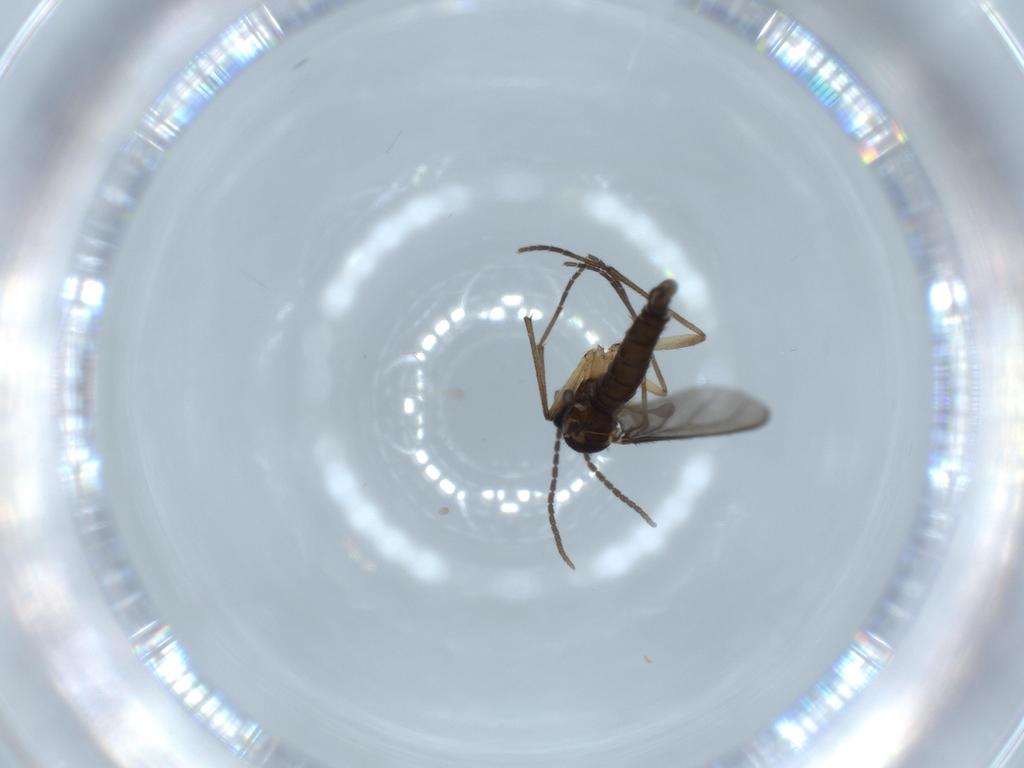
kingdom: Animalia
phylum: Arthropoda
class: Insecta
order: Diptera
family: Sciaridae
